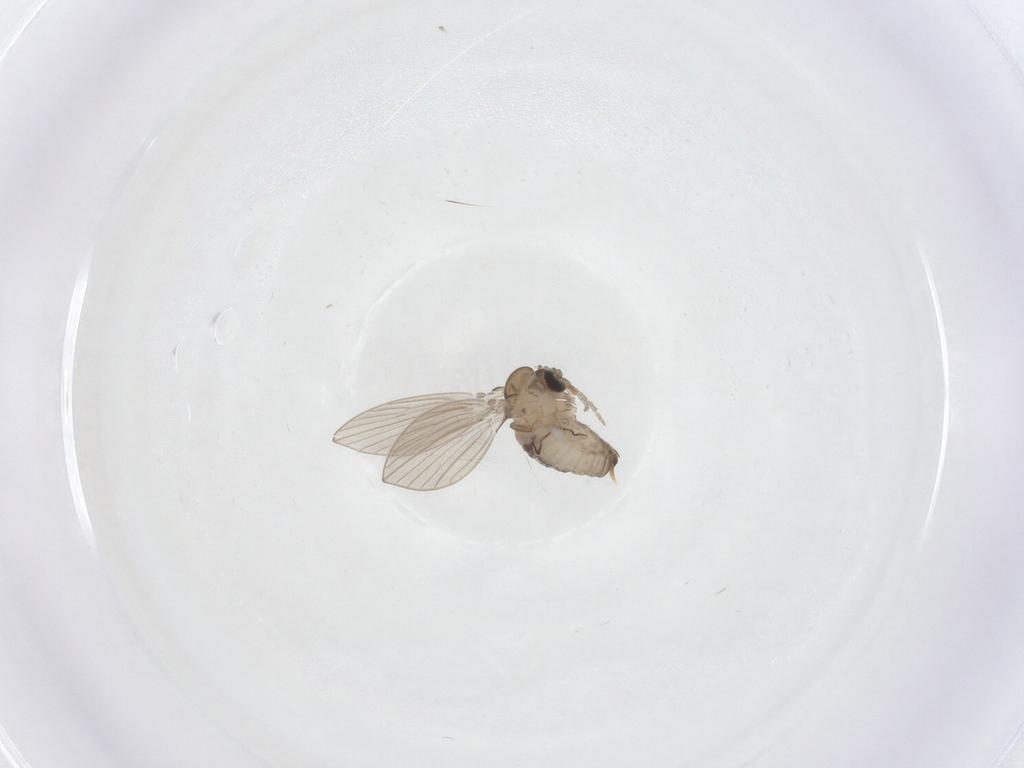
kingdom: Animalia
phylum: Arthropoda
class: Insecta
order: Diptera
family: Psychodidae
